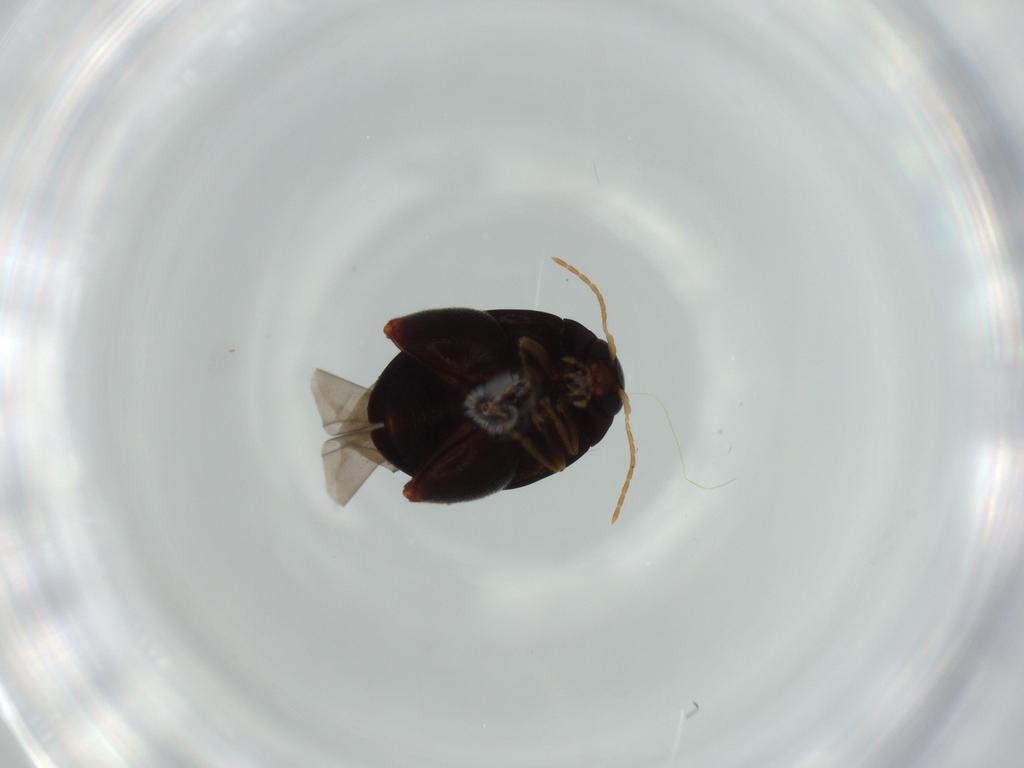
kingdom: Animalia
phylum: Arthropoda
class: Insecta
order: Coleoptera
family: Chrysomelidae
